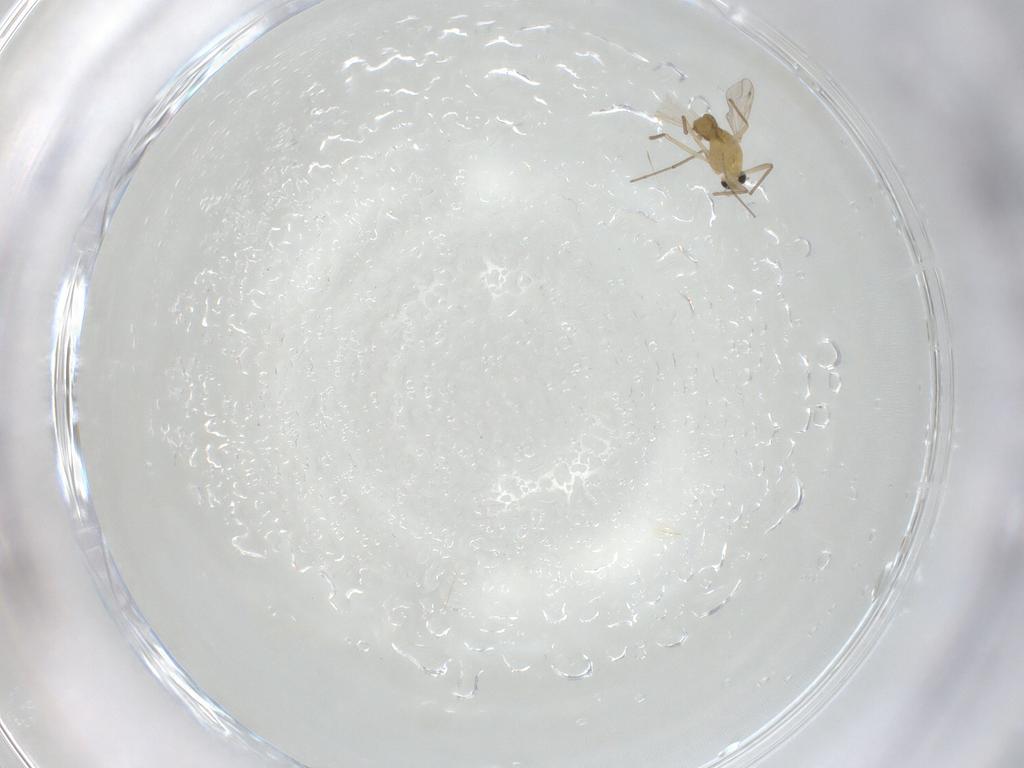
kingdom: Animalia
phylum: Arthropoda
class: Insecta
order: Diptera
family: Chironomidae
